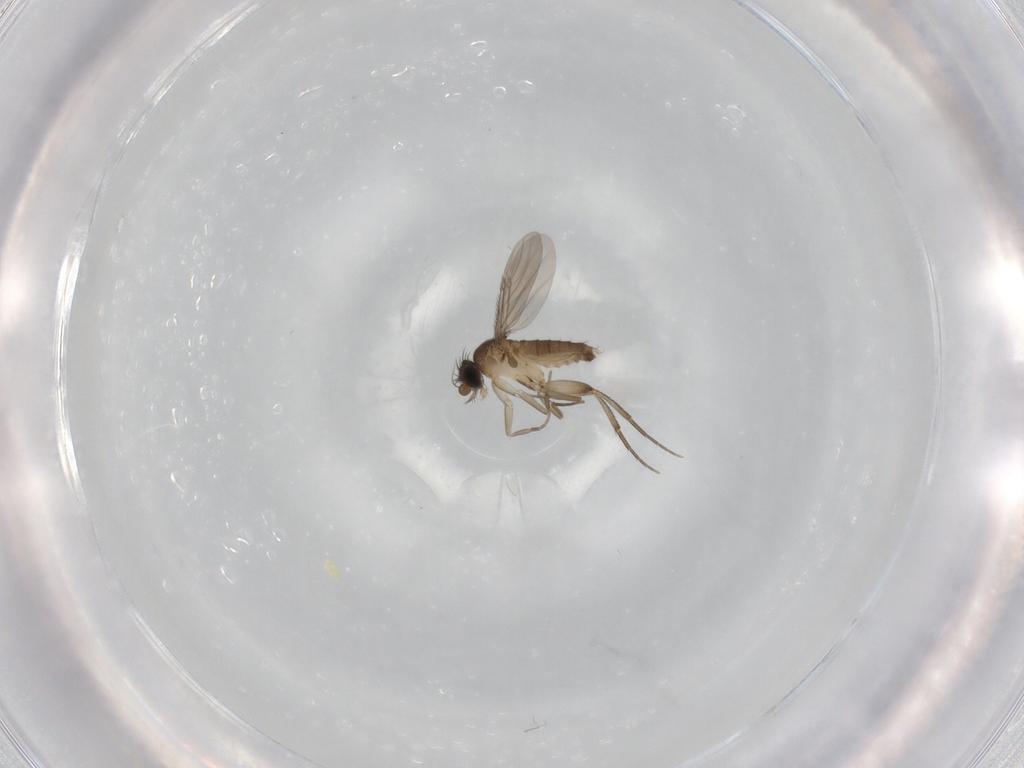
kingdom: Animalia
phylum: Arthropoda
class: Insecta
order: Diptera
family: Phoridae
